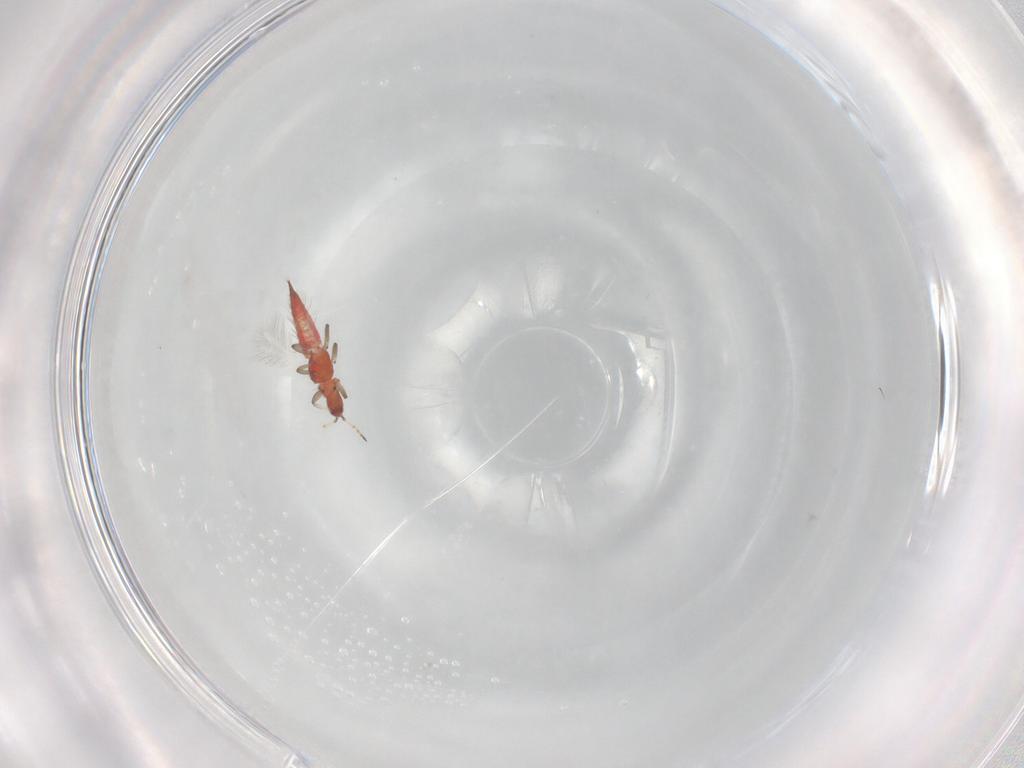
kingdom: Animalia
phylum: Arthropoda
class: Insecta
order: Thysanoptera
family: Phlaeothripidae
